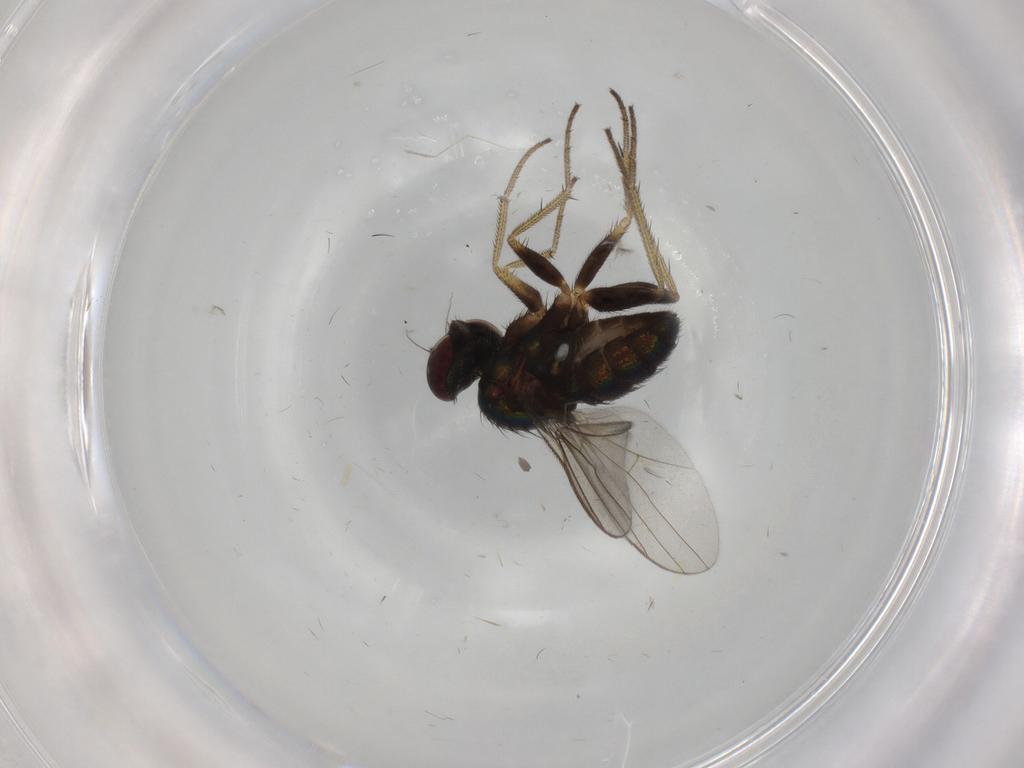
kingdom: Animalia
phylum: Arthropoda
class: Insecta
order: Diptera
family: Dolichopodidae
